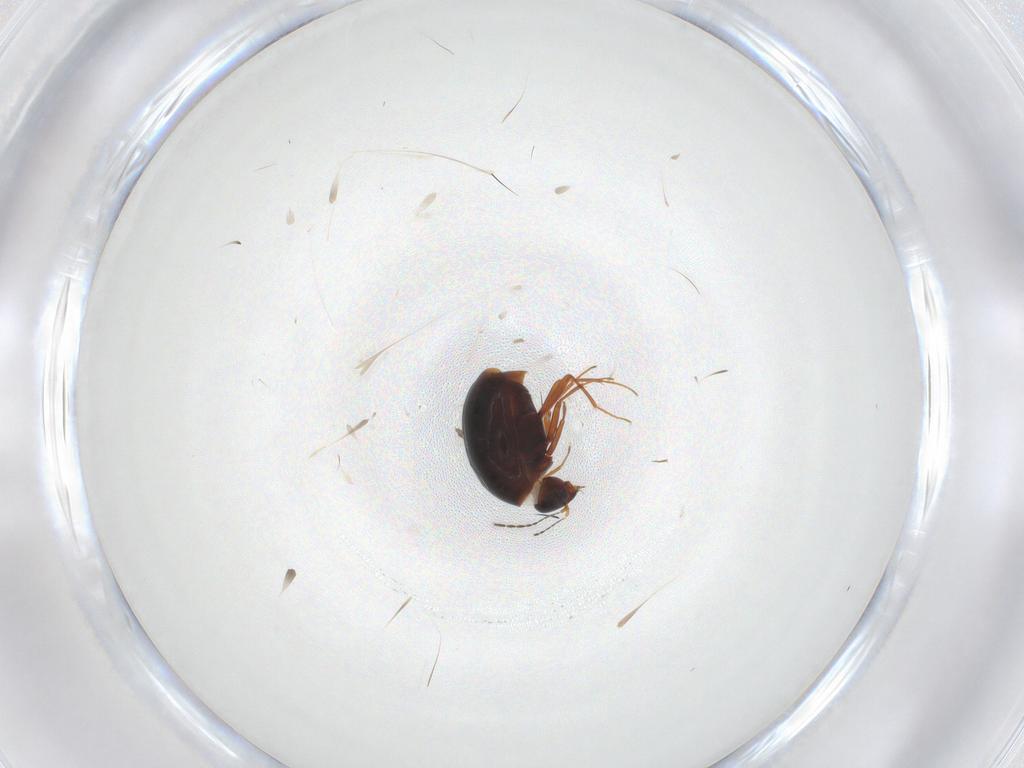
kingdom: Animalia
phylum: Arthropoda
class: Insecta
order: Coleoptera
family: Staphylinidae
